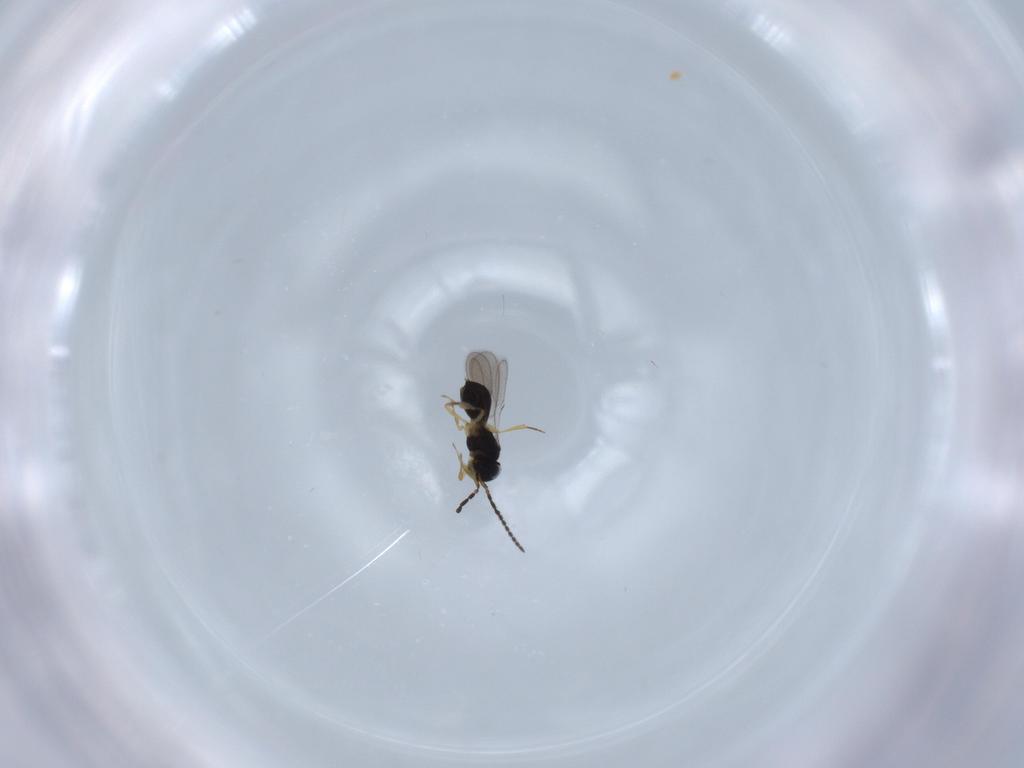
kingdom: Animalia
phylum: Arthropoda
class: Insecta
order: Hymenoptera
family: Scelionidae
